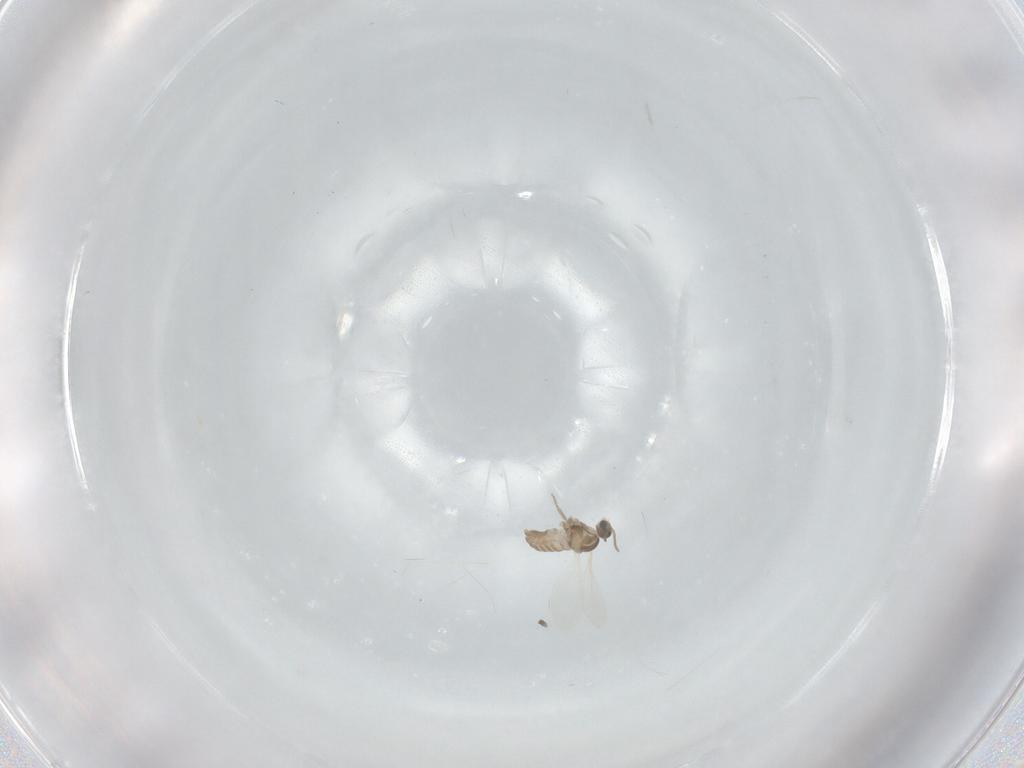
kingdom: Animalia
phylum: Arthropoda
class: Insecta
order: Diptera
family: Cecidomyiidae
